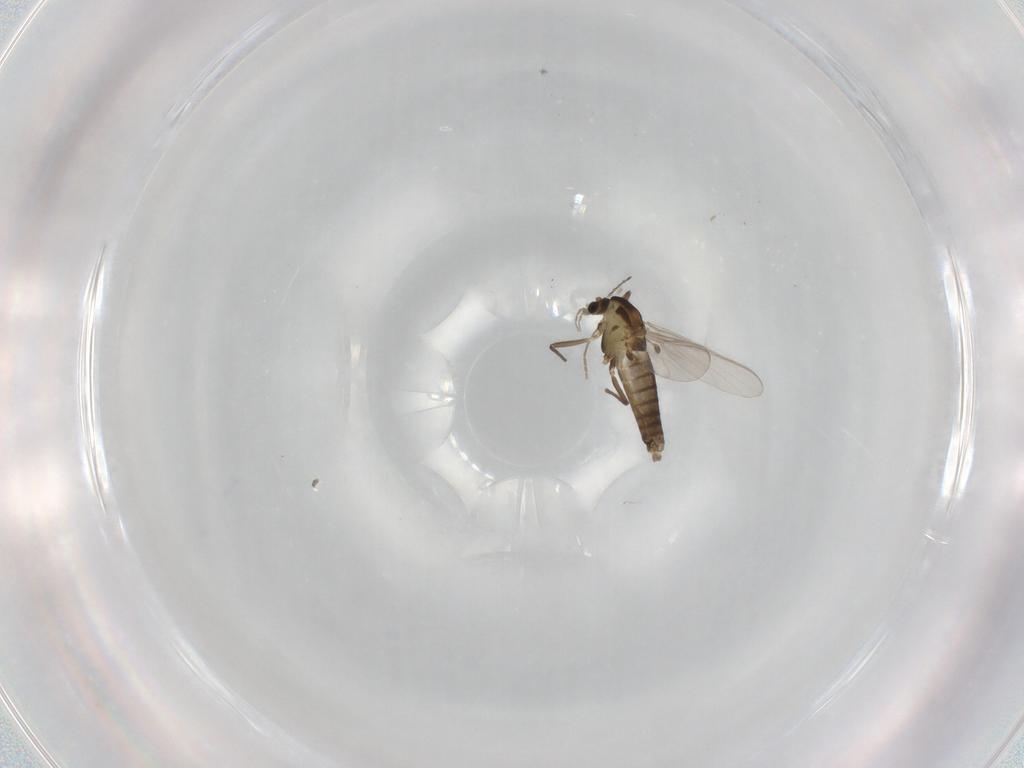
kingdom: Animalia
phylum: Arthropoda
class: Insecta
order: Diptera
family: Chironomidae
